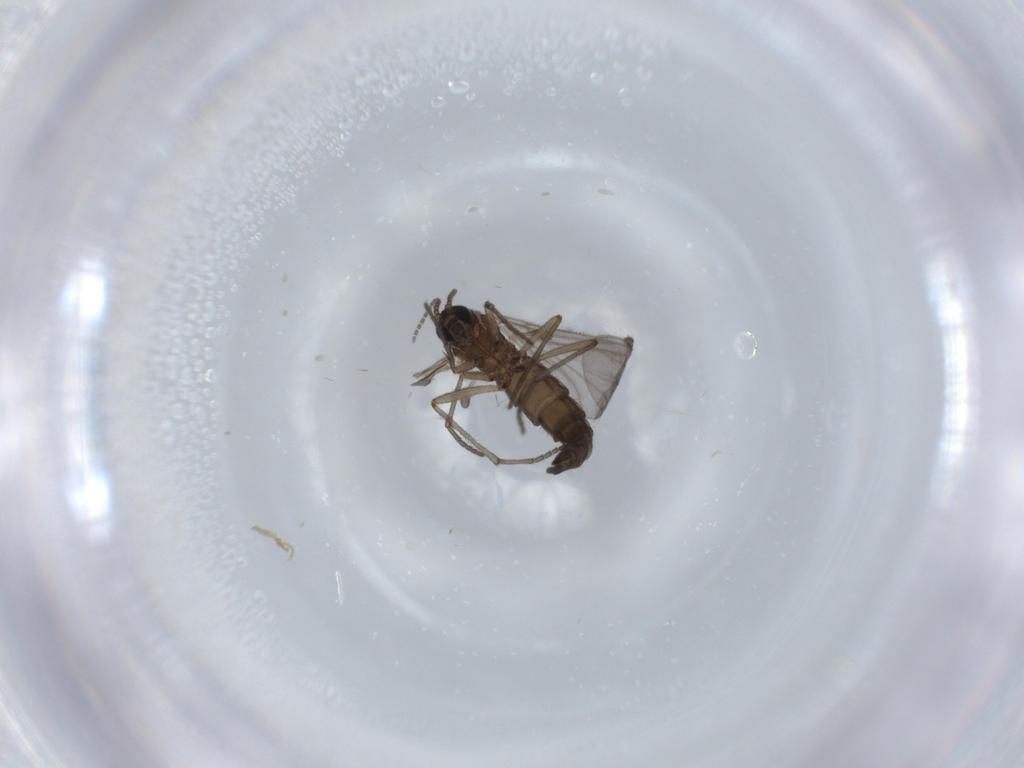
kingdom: Animalia
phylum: Arthropoda
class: Insecta
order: Diptera
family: Sciaridae
